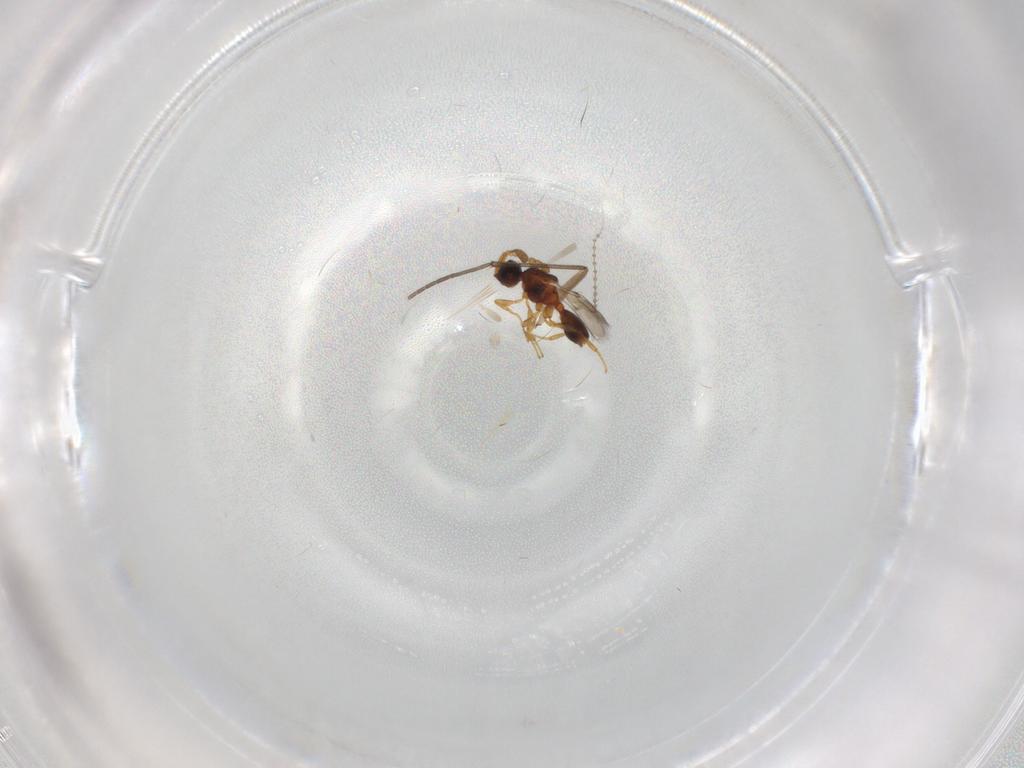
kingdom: Animalia
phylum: Arthropoda
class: Insecta
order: Hymenoptera
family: Diapriidae
